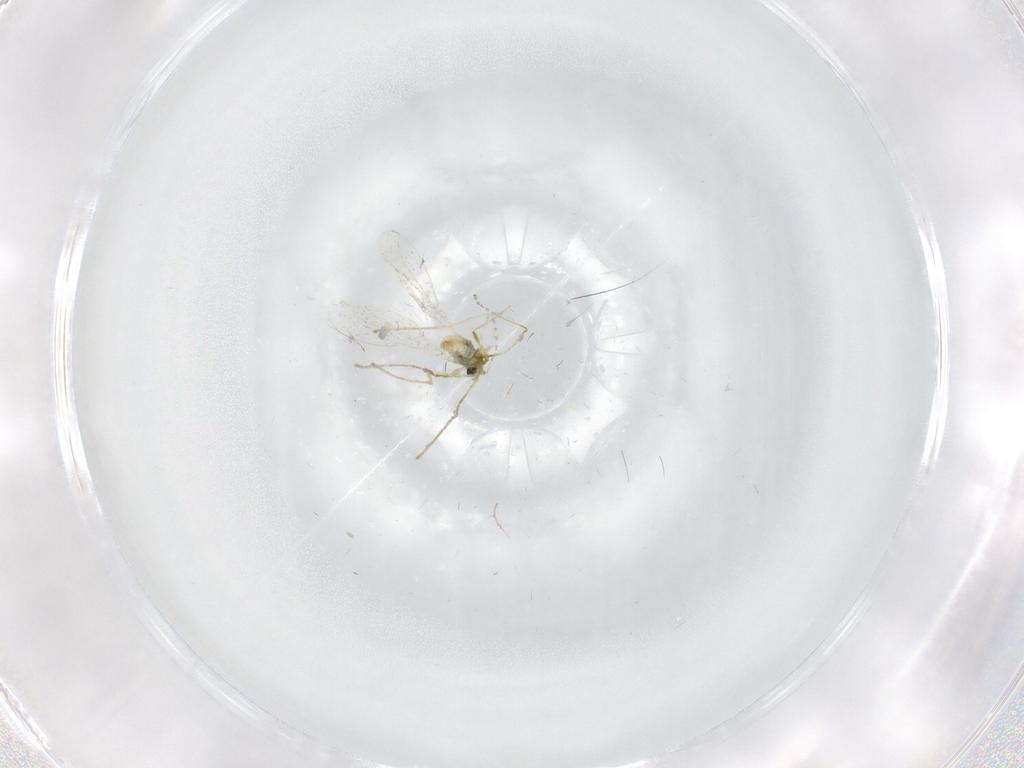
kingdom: Animalia
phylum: Arthropoda
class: Insecta
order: Diptera
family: Cecidomyiidae
